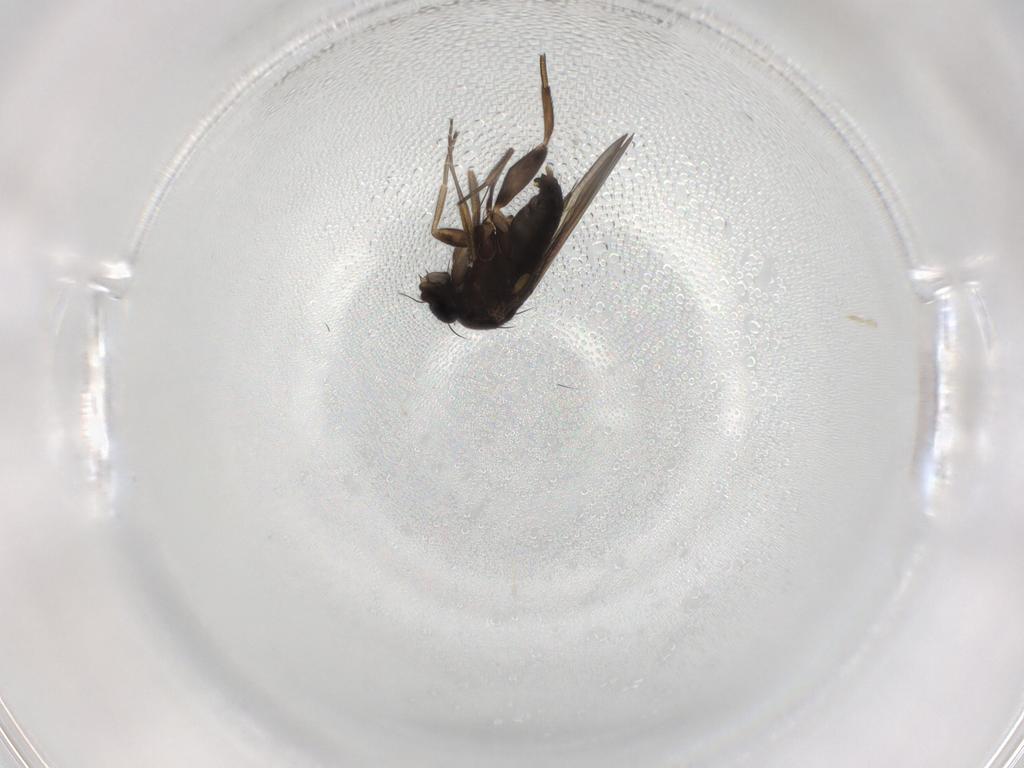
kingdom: Animalia
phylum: Arthropoda
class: Insecta
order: Diptera
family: Phoridae
